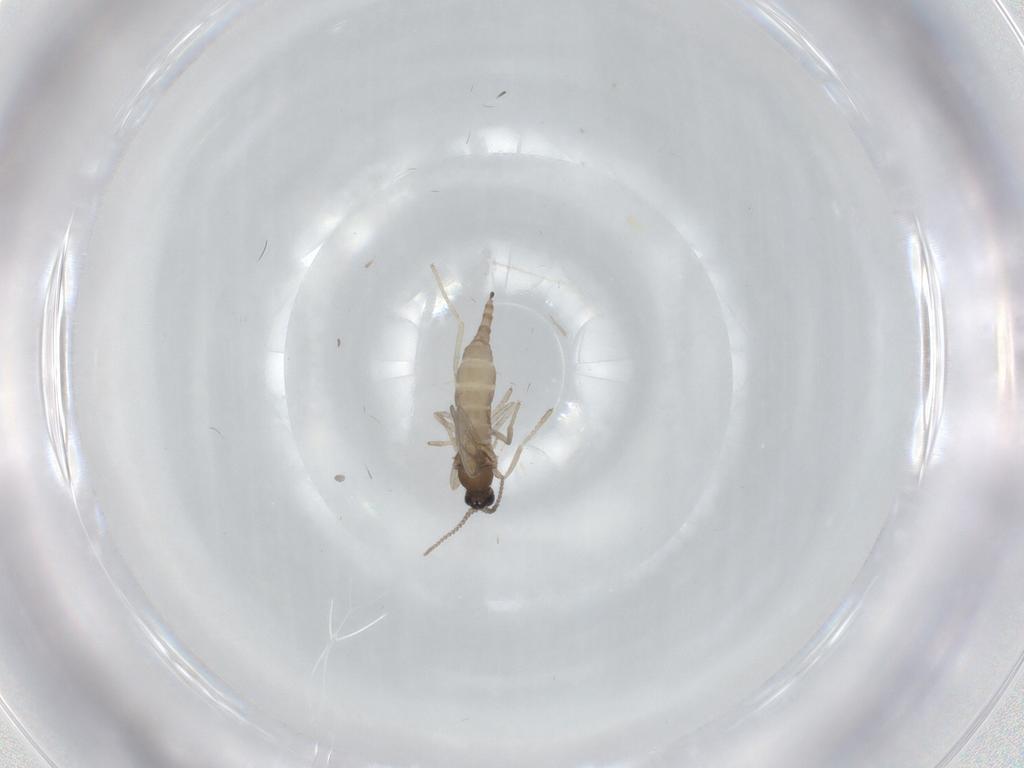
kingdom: Animalia
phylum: Arthropoda
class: Insecta
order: Diptera
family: Cecidomyiidae
